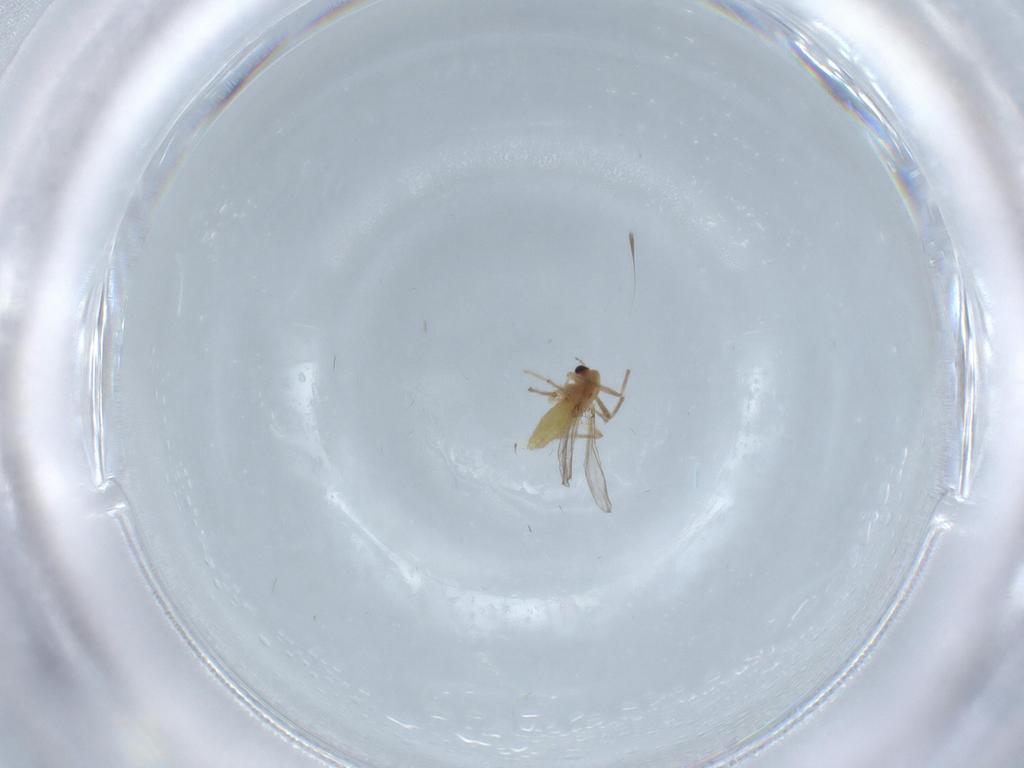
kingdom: Animalia
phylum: Arthropoda
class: Insecta
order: Diptera
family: Chironomidae
